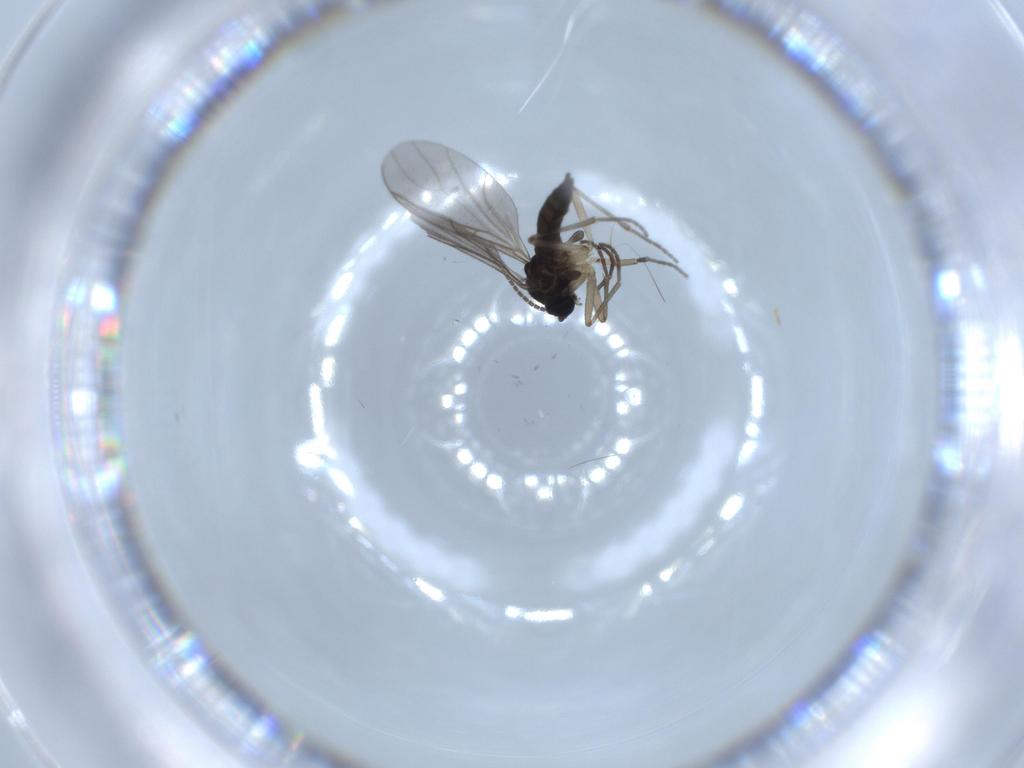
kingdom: Animalia
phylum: Arthropoda
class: Insecta
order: Diptera
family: Sciaridae
